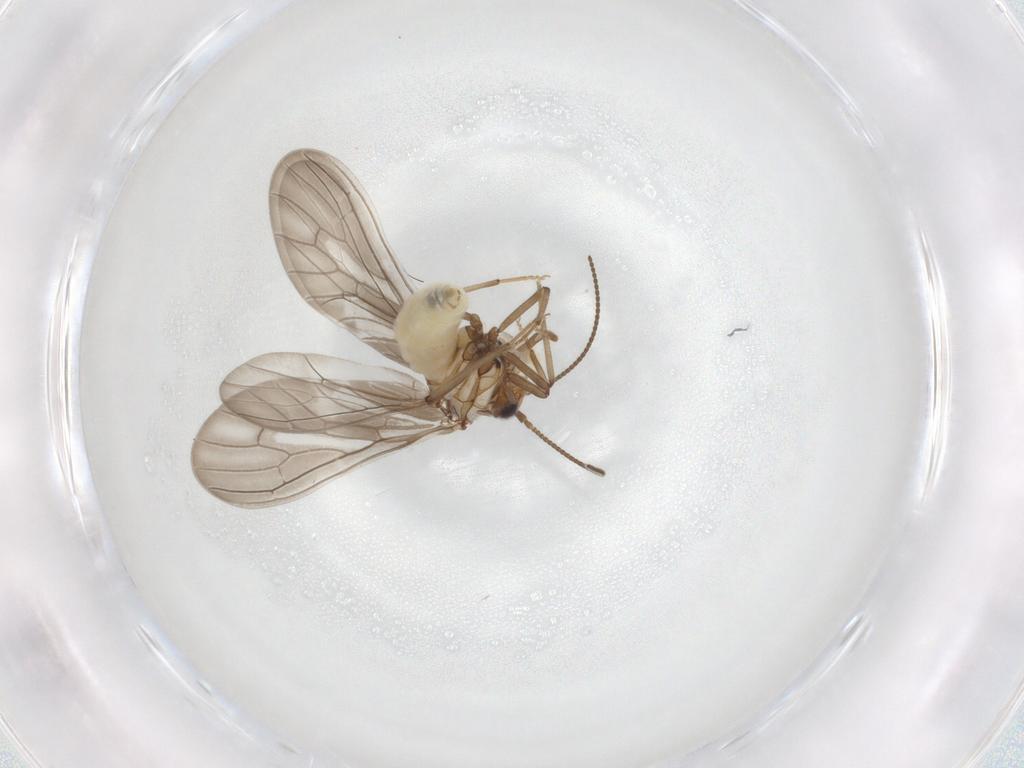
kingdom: Animalia
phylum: Arthropoda
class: Insecta
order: Neuroptera
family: Coniopterygidae
